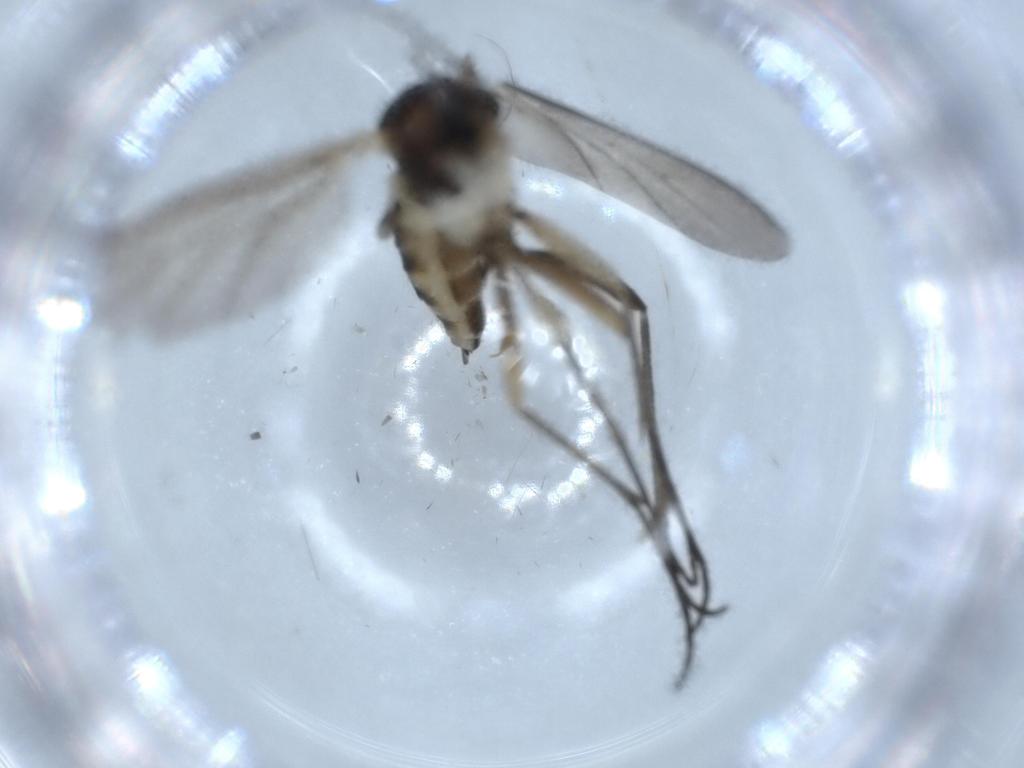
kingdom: Animalia
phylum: Arthropoda
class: Insecta
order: Diptera
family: Sciaridae
